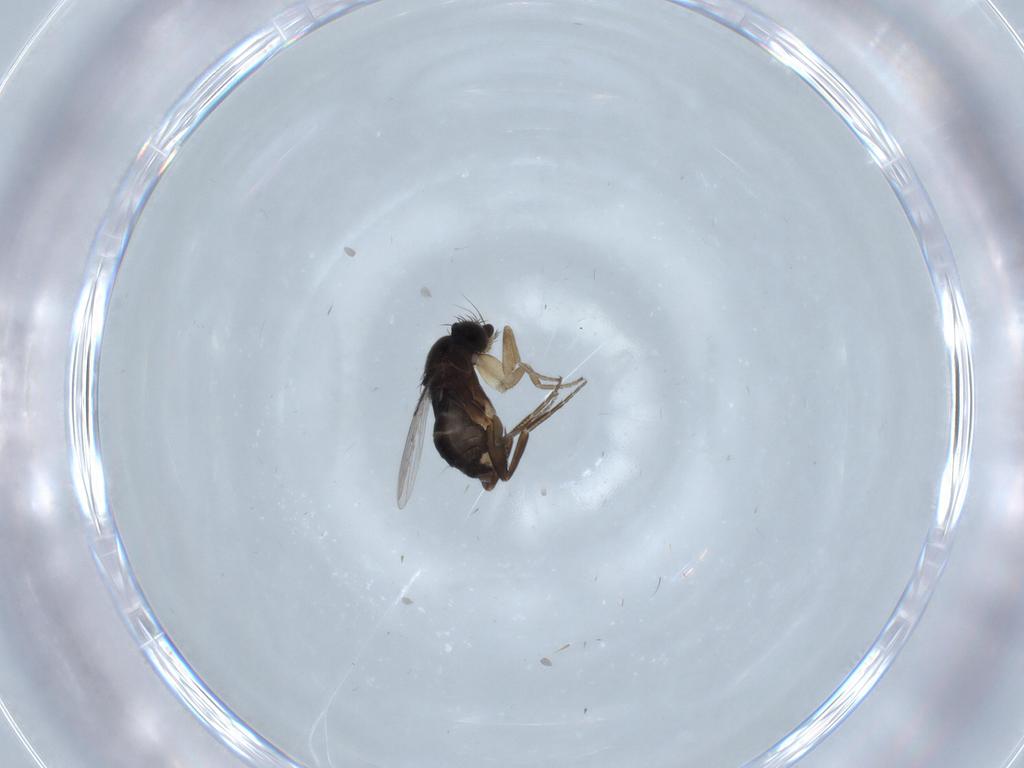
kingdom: Animalia
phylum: Arthropoda
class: Insecta
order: Diptera
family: Phoridae
